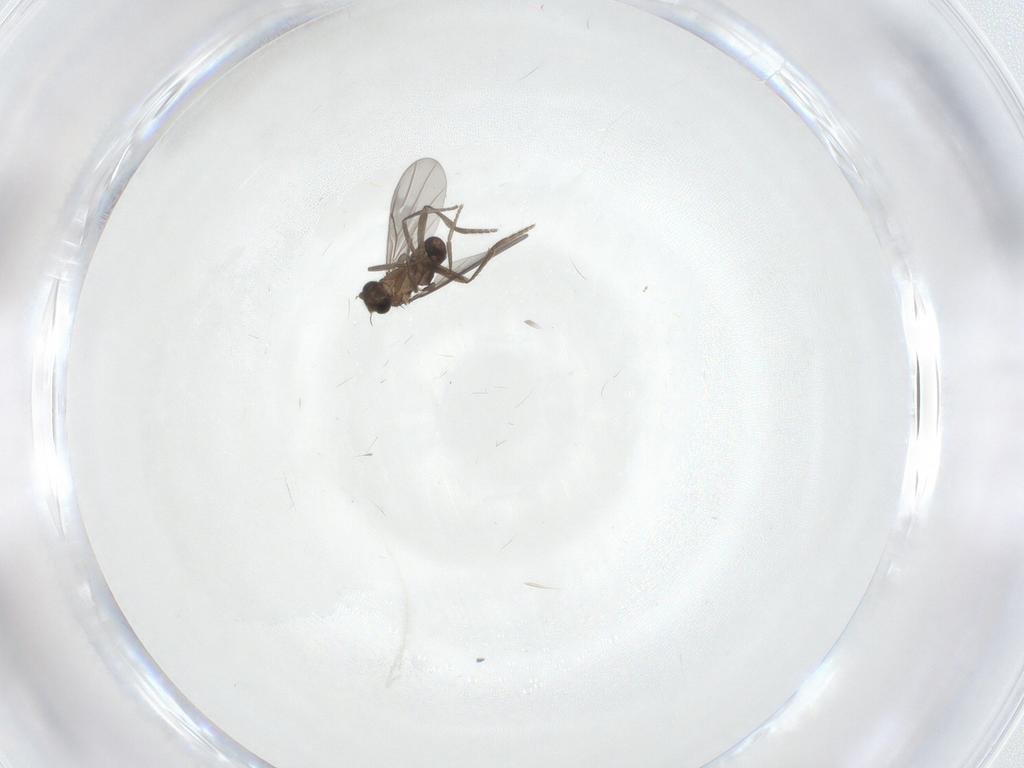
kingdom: Animalia
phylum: Arthropoda
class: Insecta
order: Diptera
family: Cecidomyiidae
